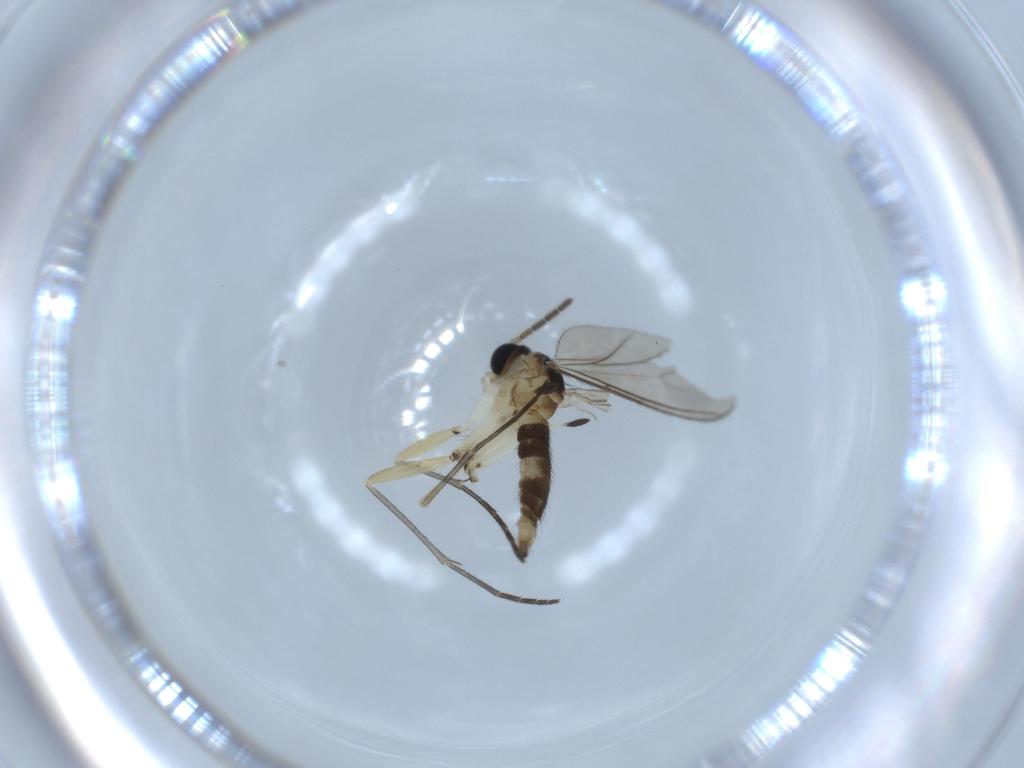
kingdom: Animalia
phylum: Arthropoda
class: Insecta
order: Diptera
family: Sciaridae
